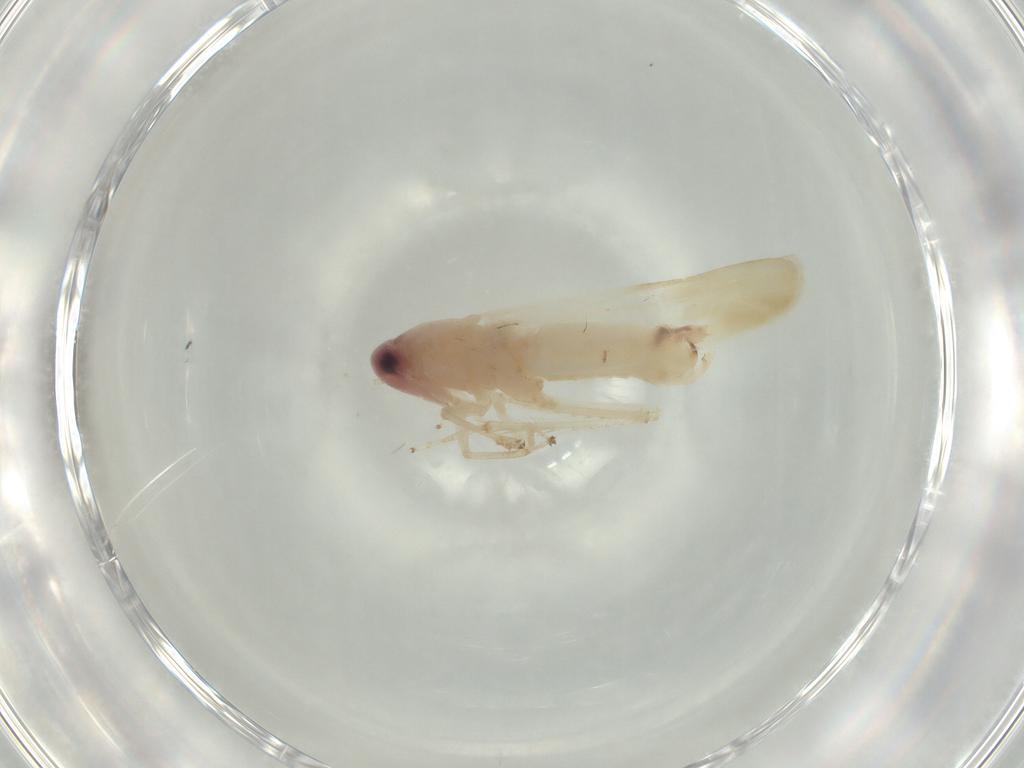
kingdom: Animalia
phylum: Arthropoda
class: Insecta
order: Hemiptera
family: Cicadellidae
